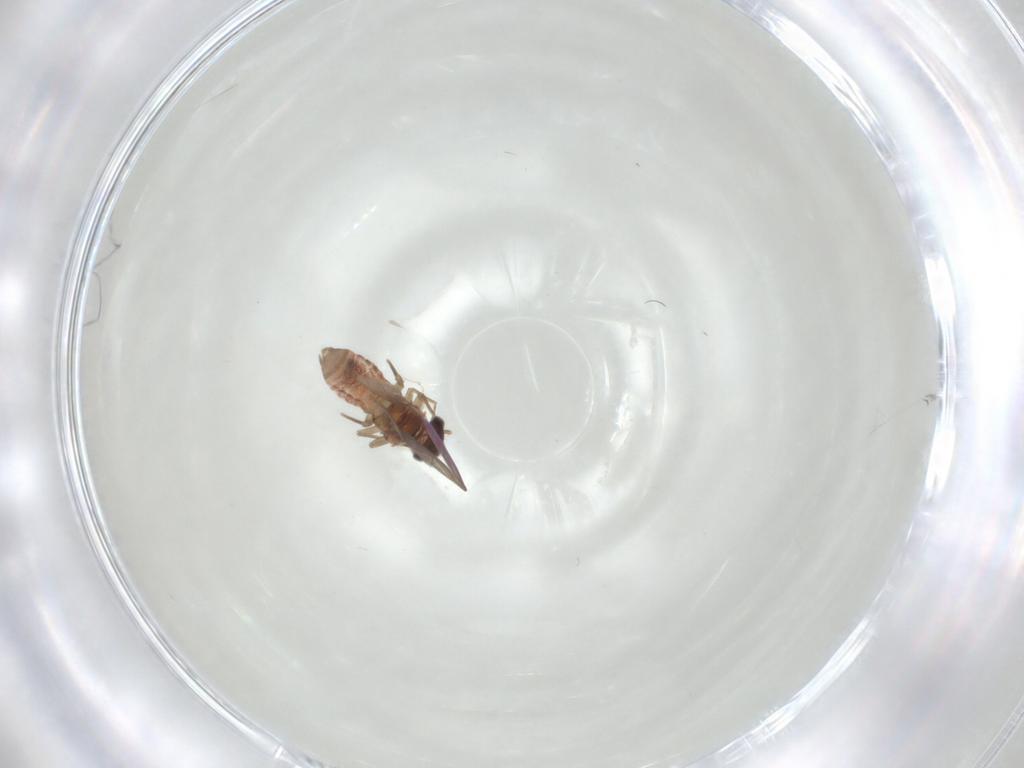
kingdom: Animalia
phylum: Arthropoda
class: Insecta
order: Psocodea
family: Lepidopsocidae
